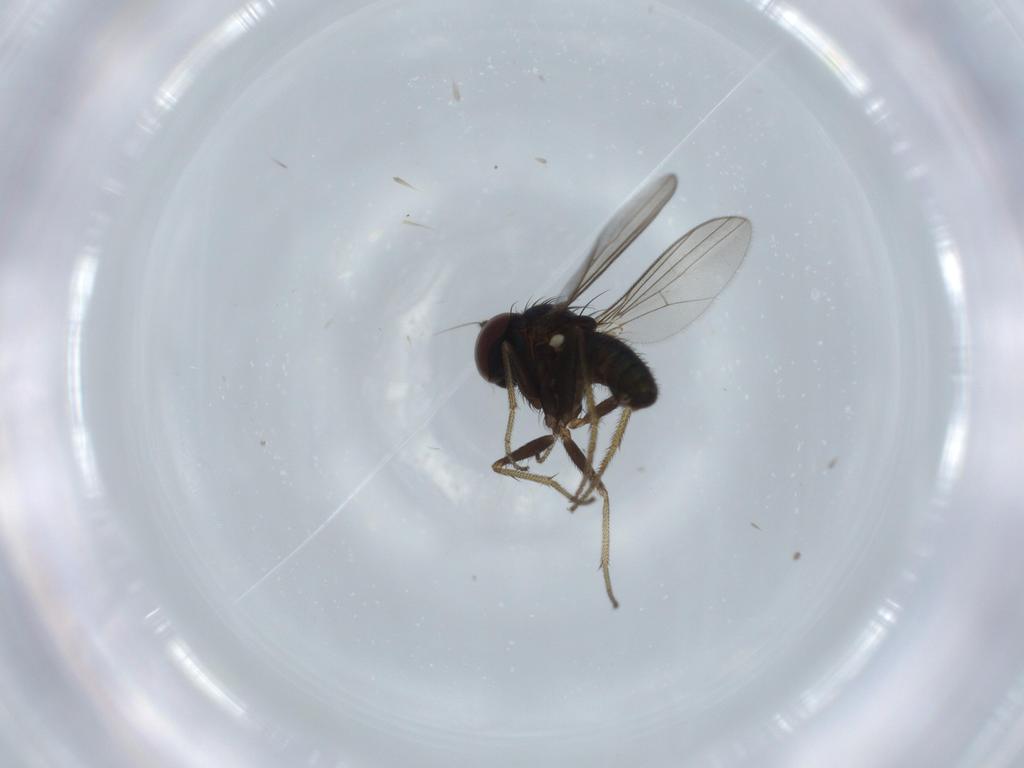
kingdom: Animalia
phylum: Arthropoda
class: Insecta
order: Diptera
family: Dolichopodidae
